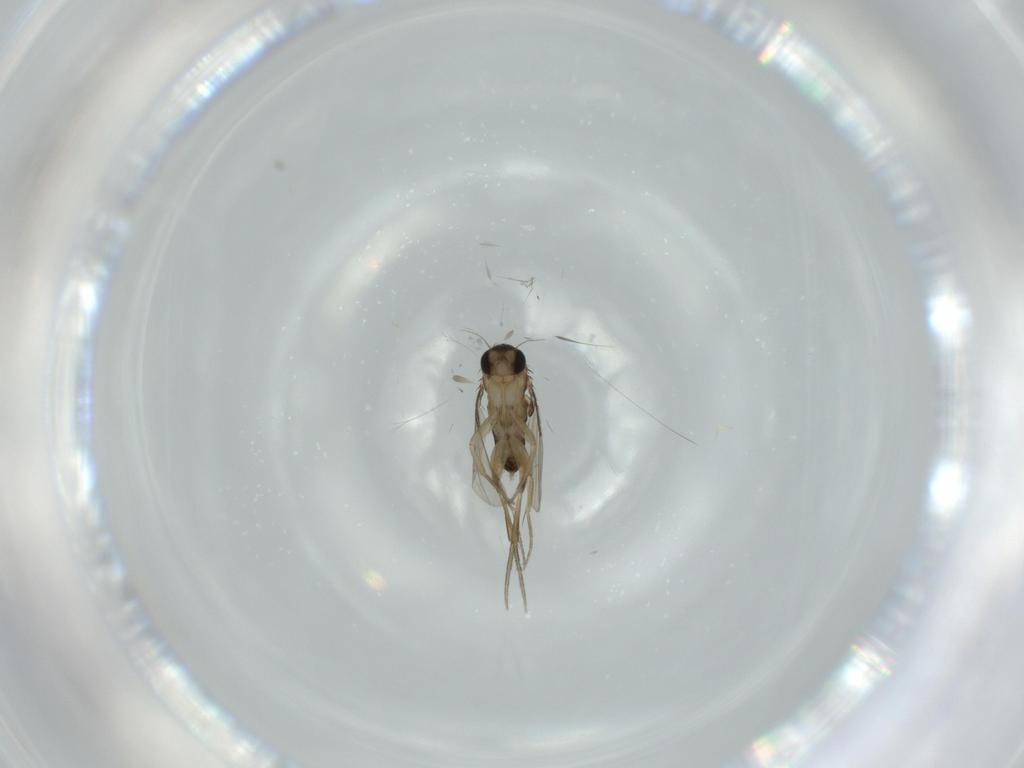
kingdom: Animalia
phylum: Arthropoda
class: Insecta
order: Diptera
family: Phoridae
